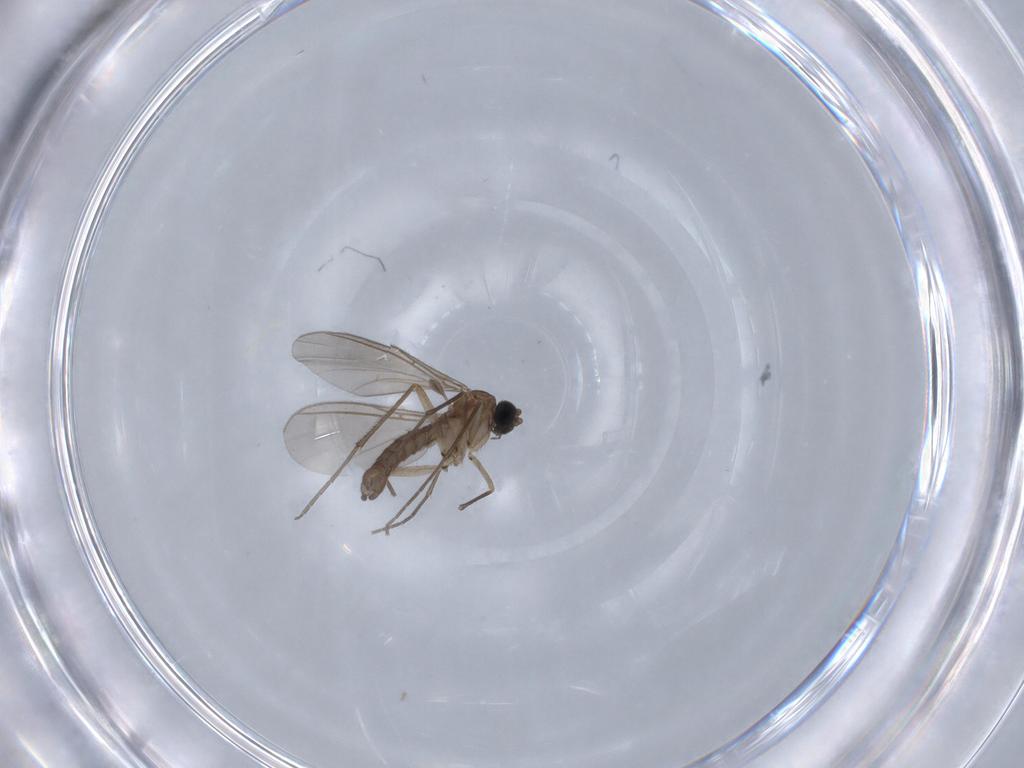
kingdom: Animalia
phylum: Arthropoda
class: Insecta
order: Diptera
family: Sciaridae
